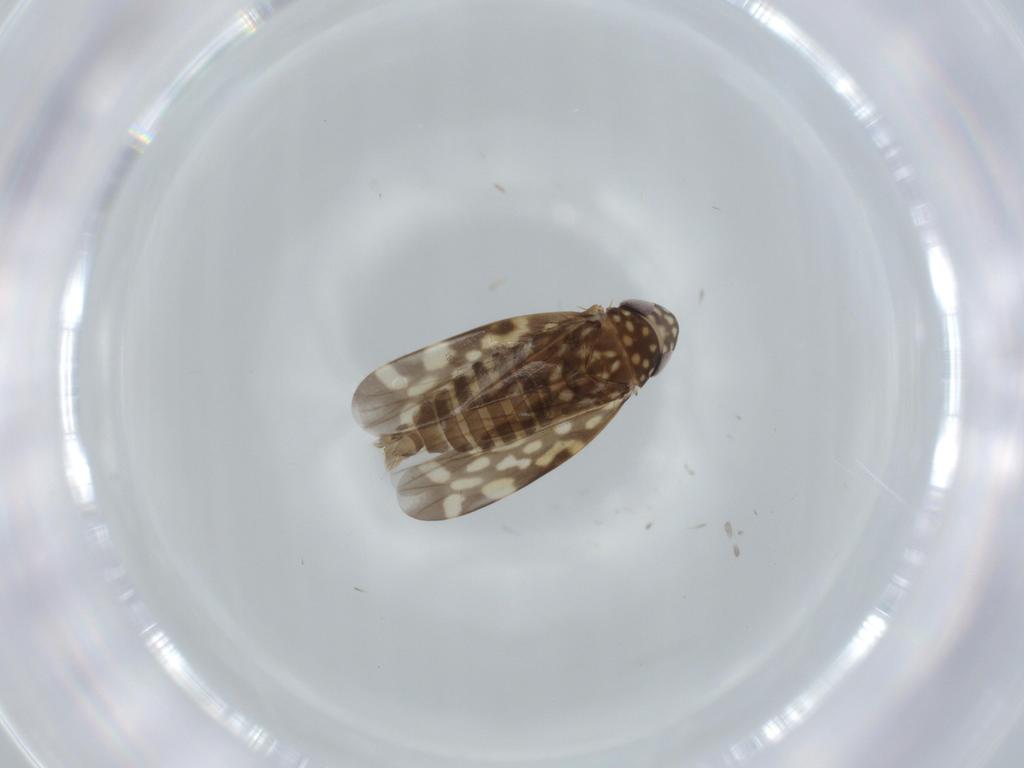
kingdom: Animalia
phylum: Arthropoda
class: Insecta
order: Hemiptera
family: Cicadellidae
